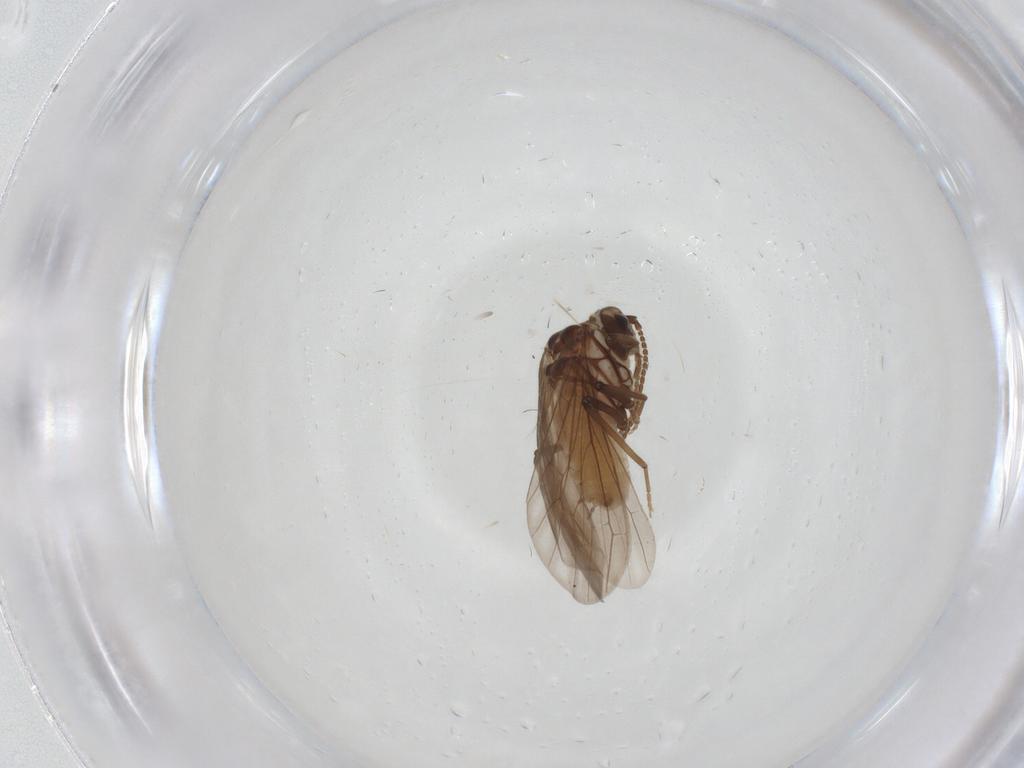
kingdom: Animalia
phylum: Arthropoda
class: Insecta
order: Neuroptera
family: Coniopterygidae
